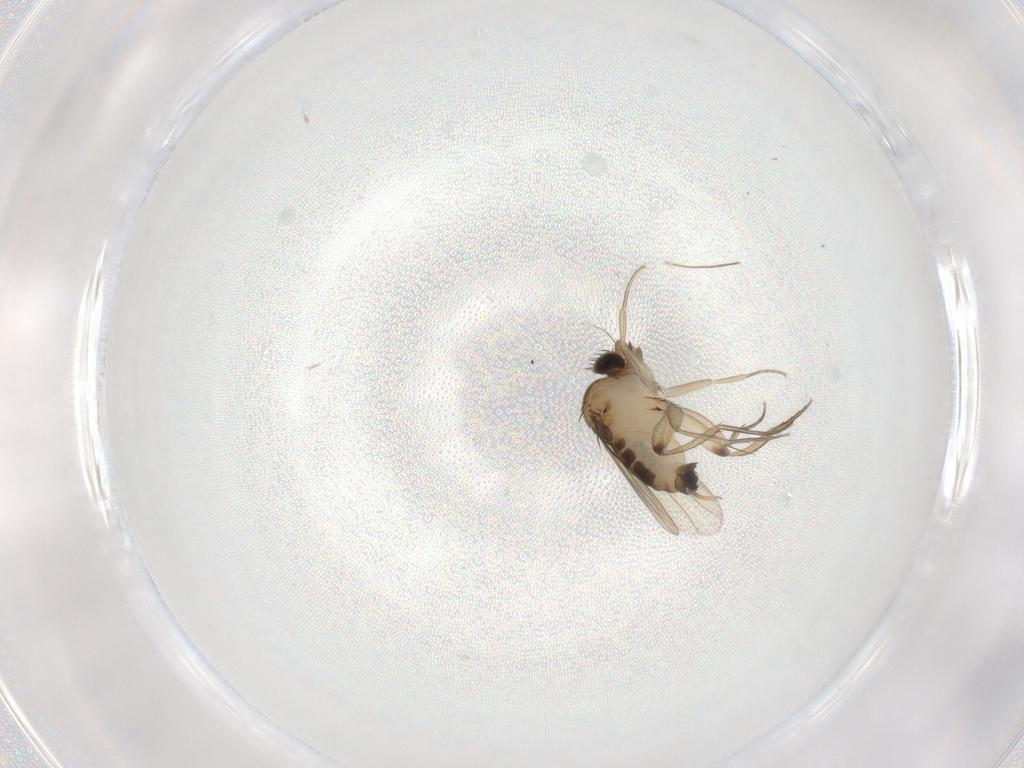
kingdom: Animalia
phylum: Arthropoda
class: Insecta
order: Diptera
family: Phoridae
